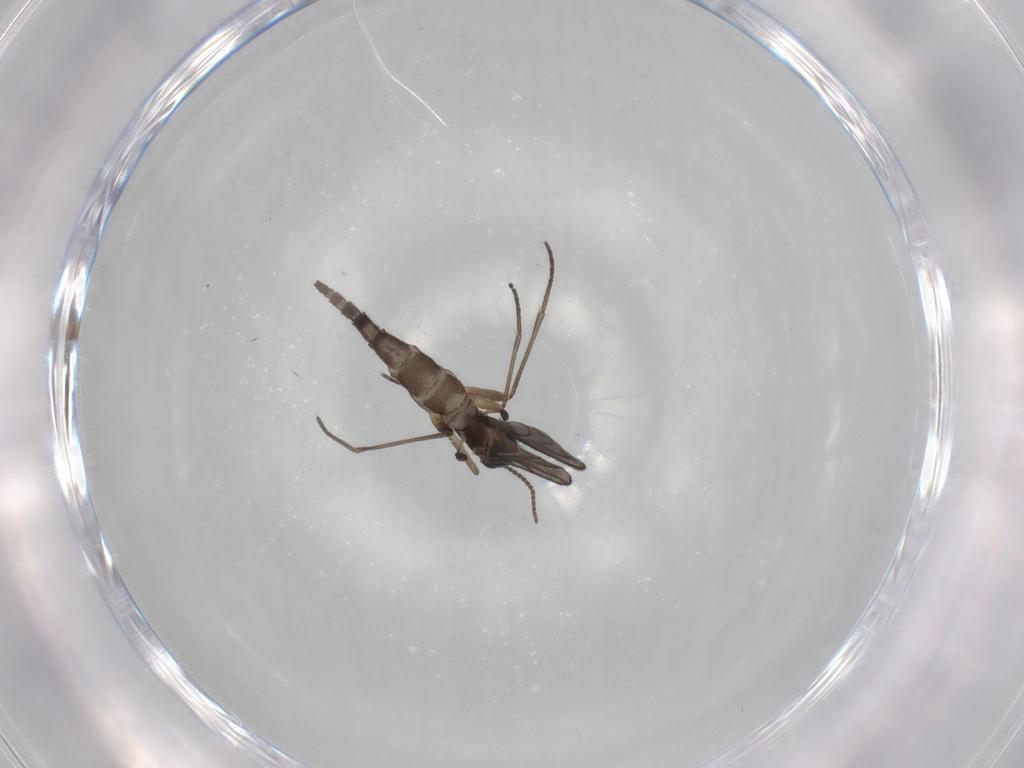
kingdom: Animalia
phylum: Arthropoda
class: Insecta
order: Diptera
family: Sciaridae
